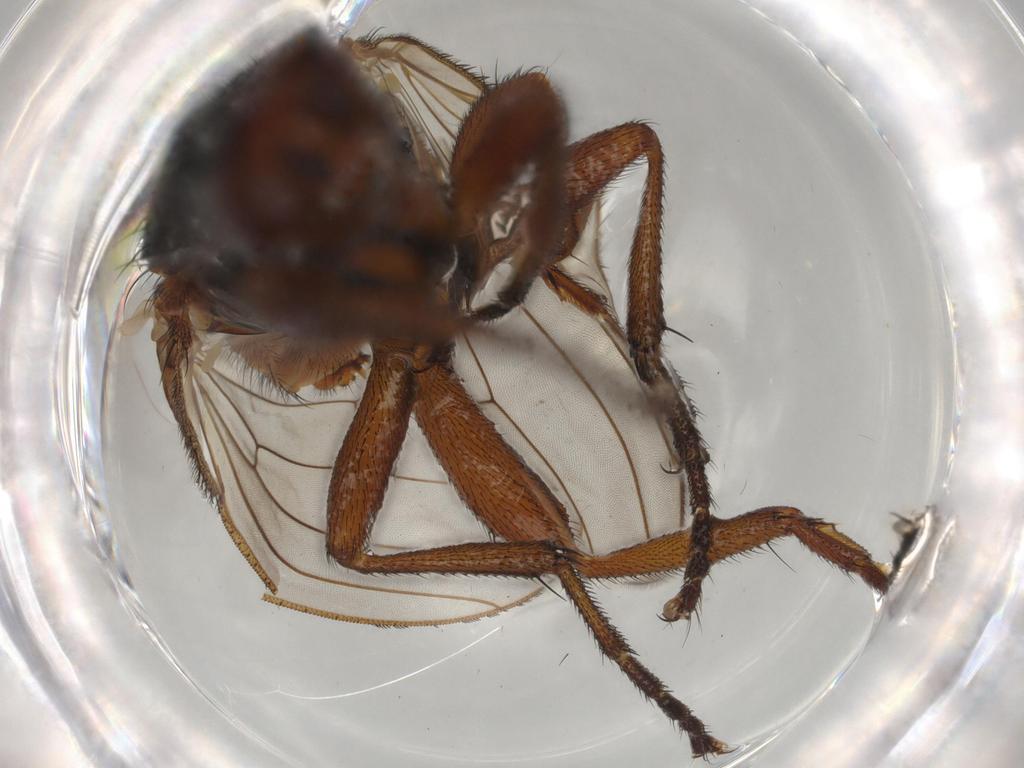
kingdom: Animalia
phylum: Arthropoda
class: Insecta
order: Diptera
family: Heleomyzidae
